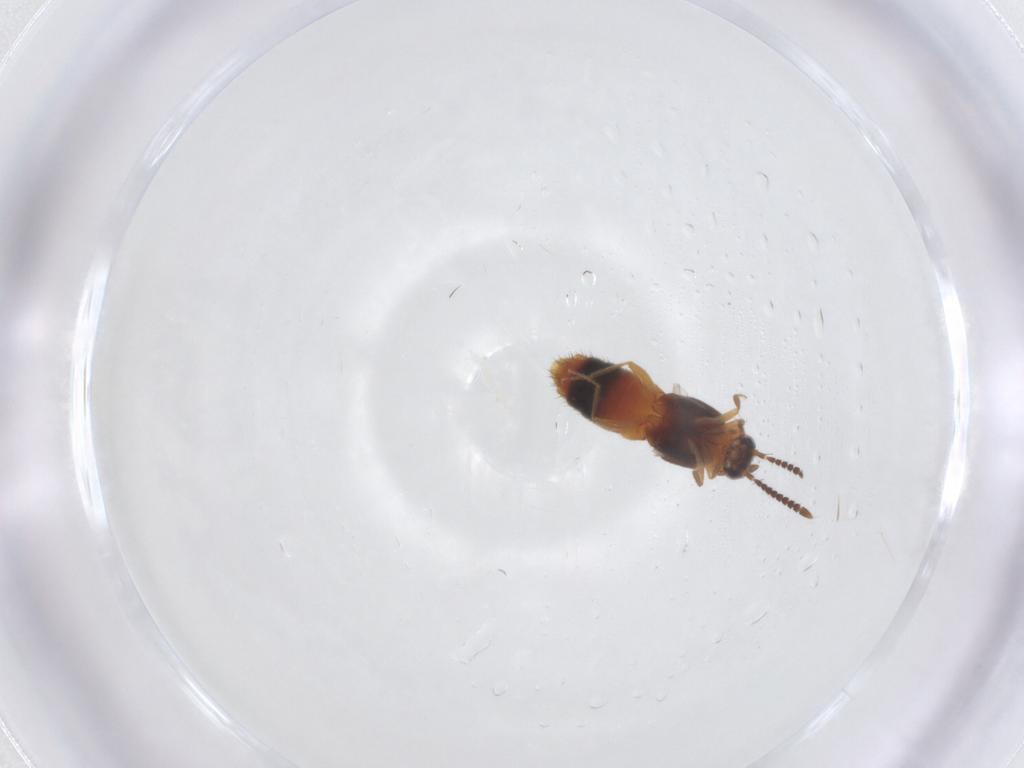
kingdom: Animalia
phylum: Arthropoda
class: Insecta
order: Coleoptera
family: Staphylinidae
